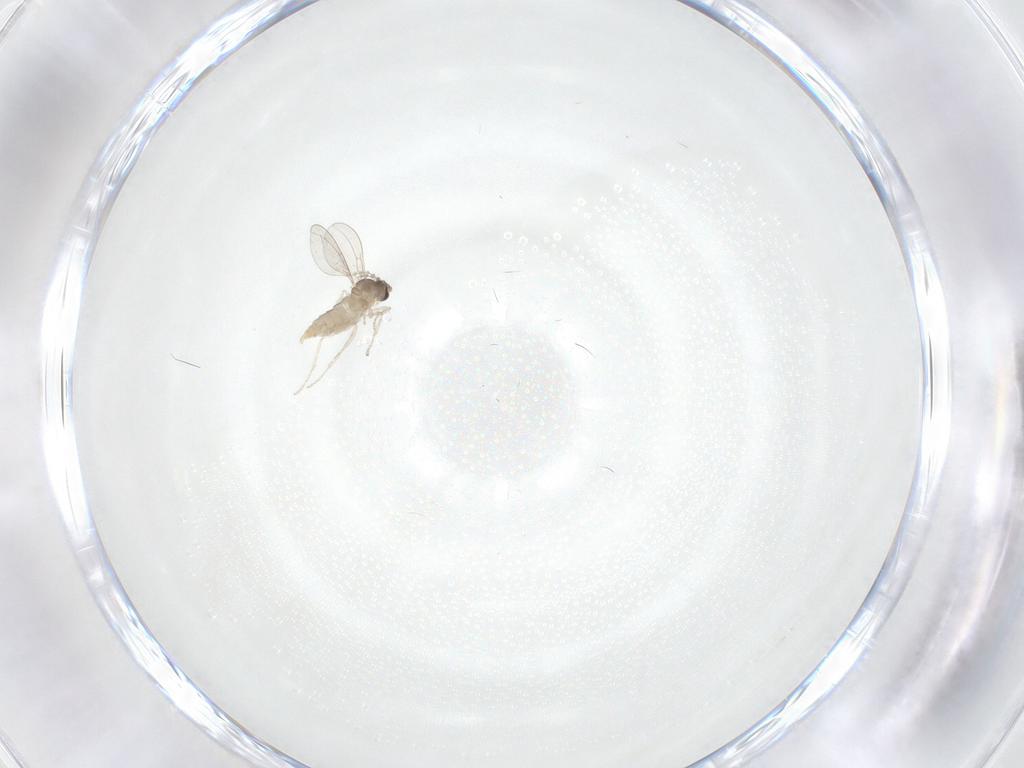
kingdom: Animalia
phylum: Arthropoda
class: Insecta
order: Diptera
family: Cecidomyiidae
